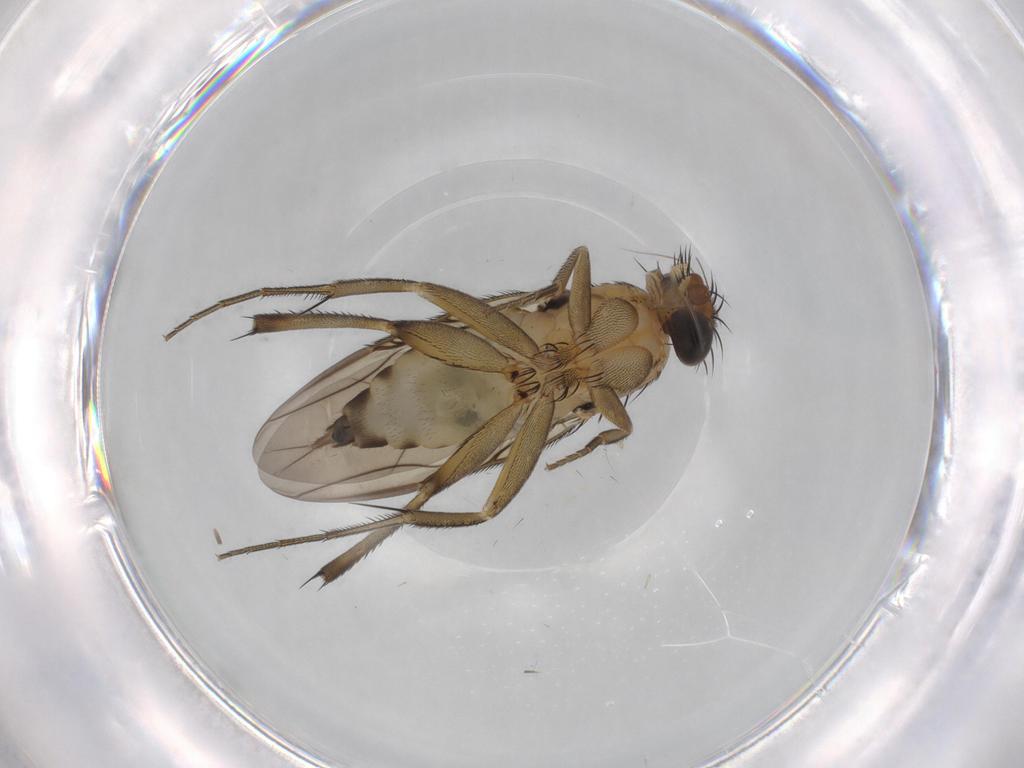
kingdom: Animalia
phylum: Arthropoda
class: Insecta
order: Diptera
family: Phoridae
